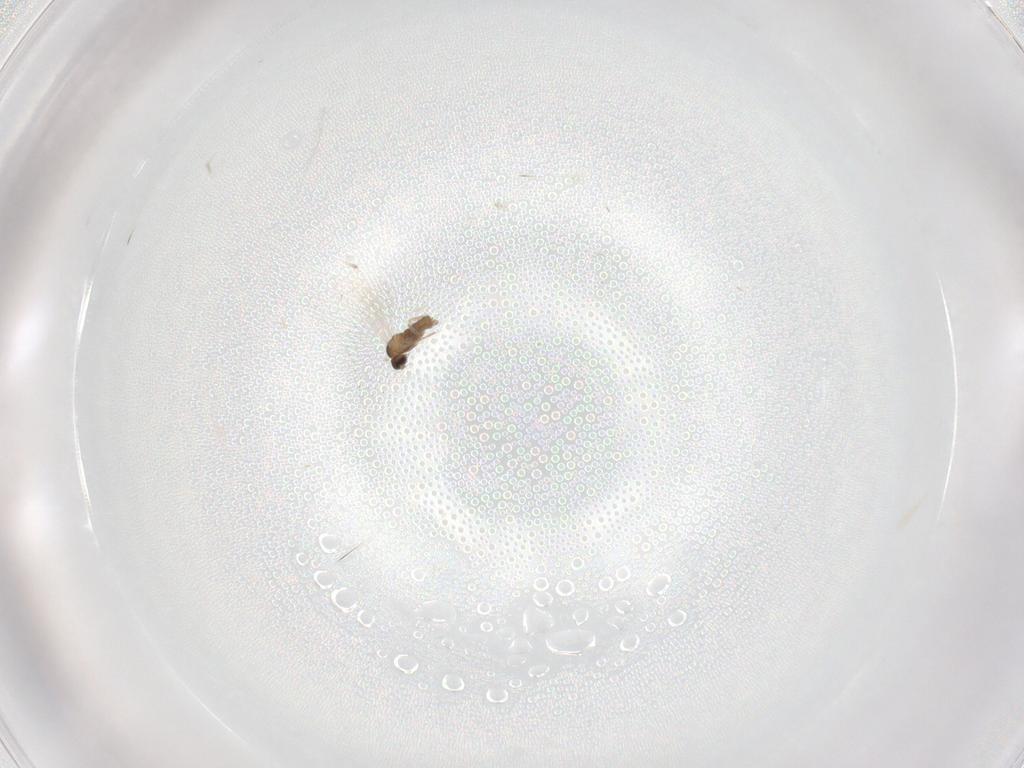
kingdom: Animalia
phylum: Arthropoda
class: Insecta
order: Diptera
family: Cecidomyiidae
